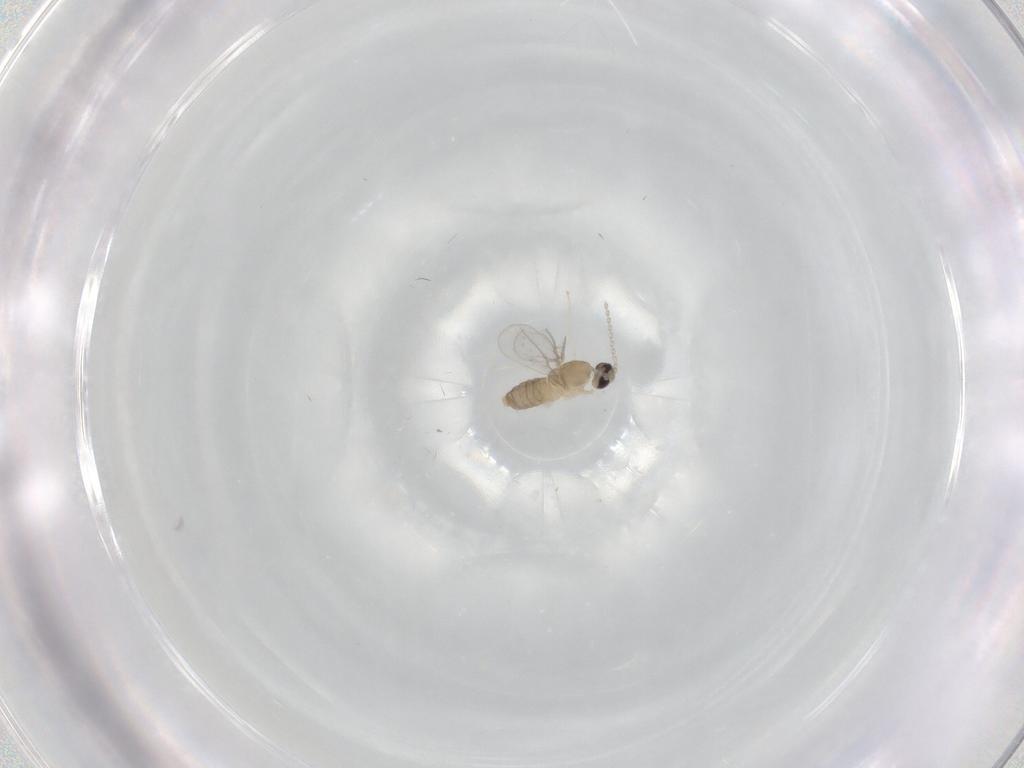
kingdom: Animalia
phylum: Arthropoda
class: Insecta
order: Diptera
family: Cecidomyiidae
